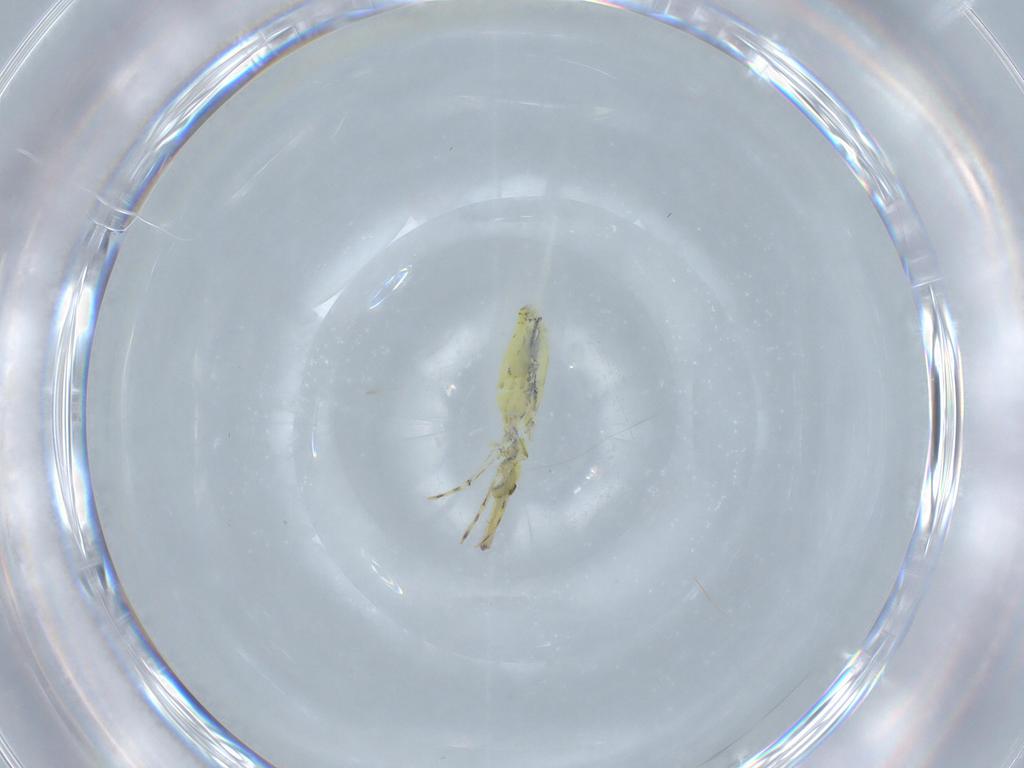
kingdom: Animalia
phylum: Arthropoda
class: Collembola
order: Entomobryomorpha
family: Paronellidae
